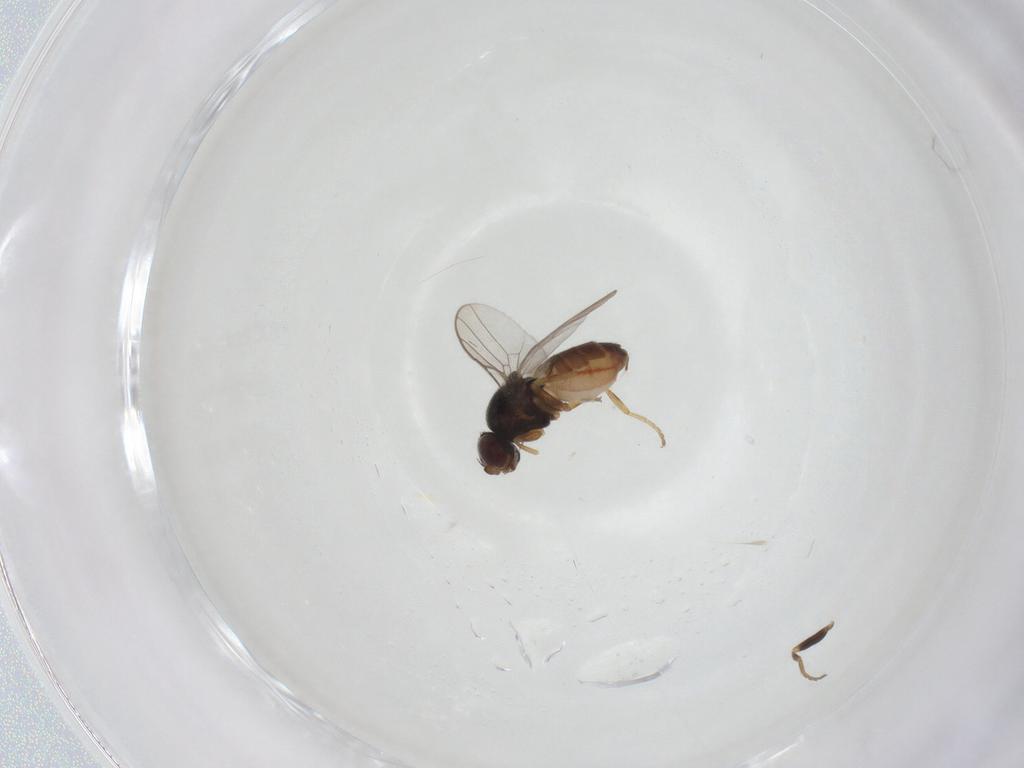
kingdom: Animalia
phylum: Arthropoda
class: Insecta
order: Diptera
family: Chloropidae
